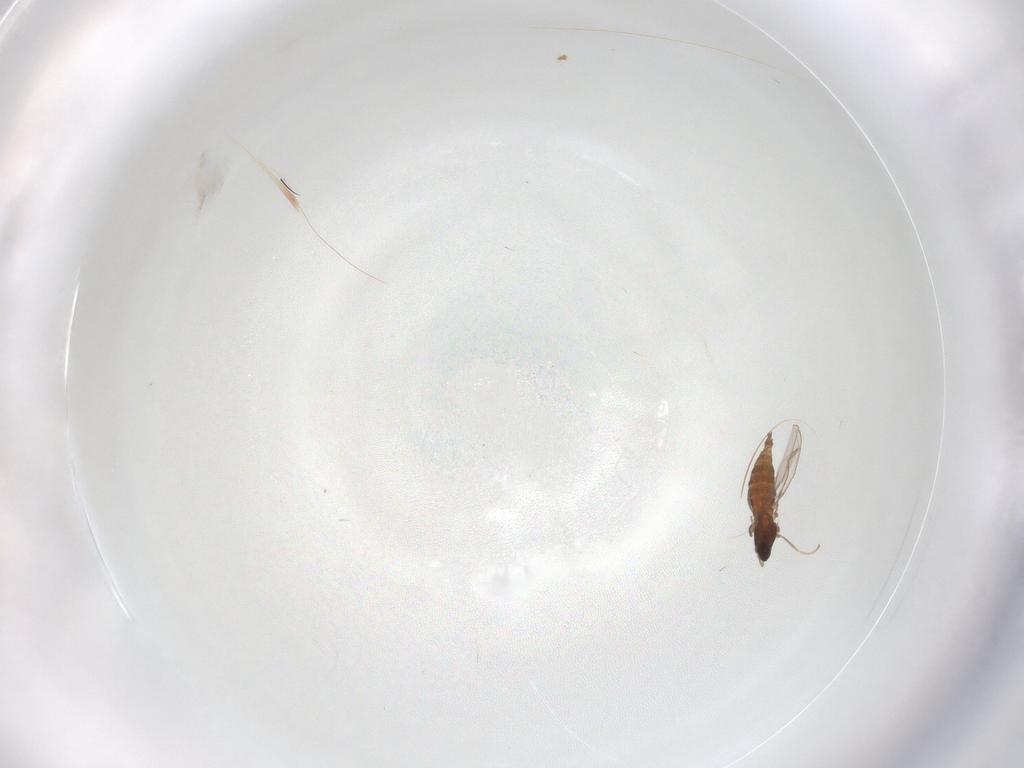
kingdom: Animalia
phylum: Arthropoda
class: Insecta
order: Diptera
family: Cecidomyiidae
